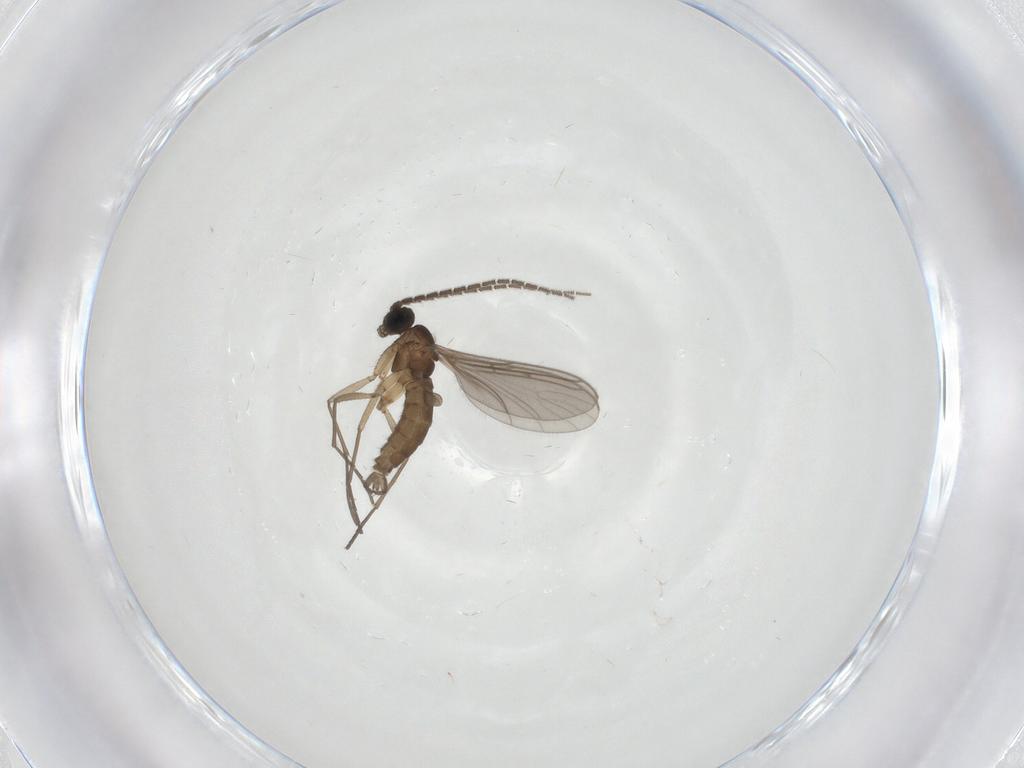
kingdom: Animalia
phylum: Arthropoda
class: Insecta
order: Diptera
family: Sciaridae
